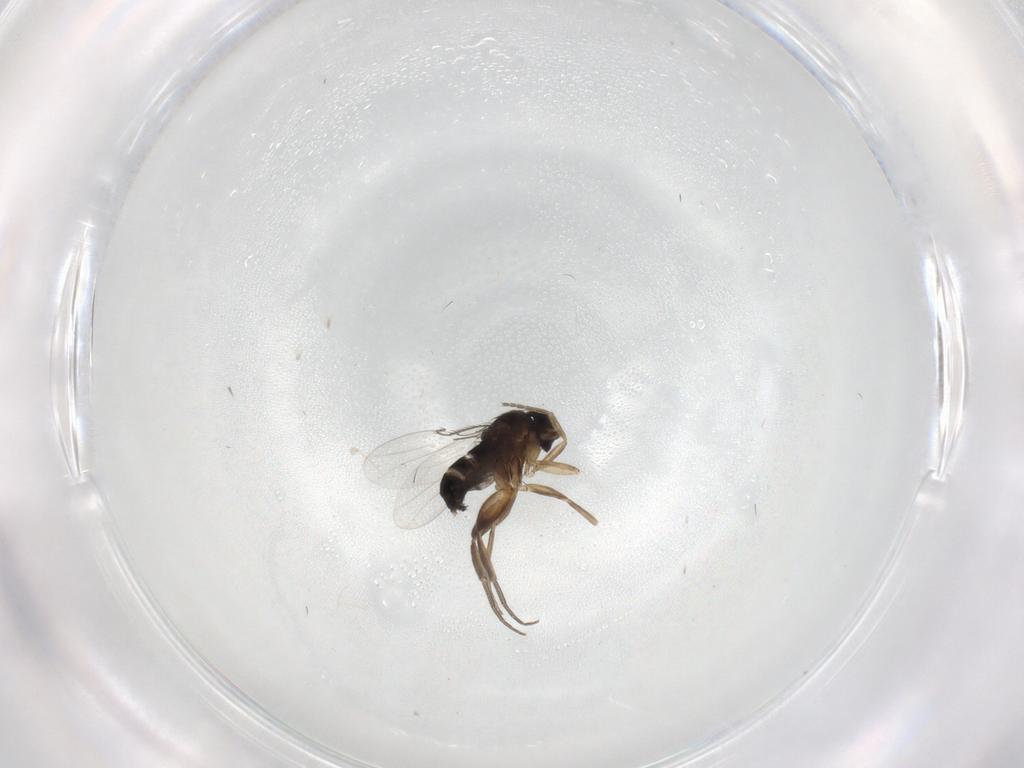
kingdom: Animalia
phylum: Arthropoda
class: Insecta
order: Diptera
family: Phoridae
